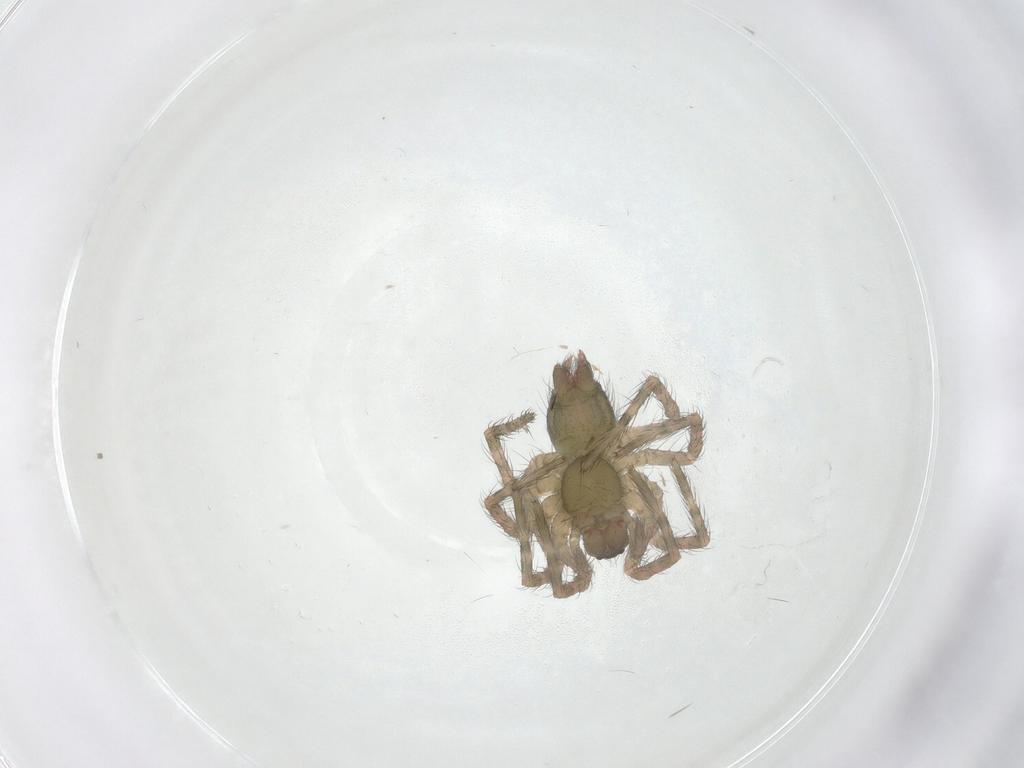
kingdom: Animalia
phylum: Arthropoda
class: Arachnida
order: Araneae
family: Agelenidae
